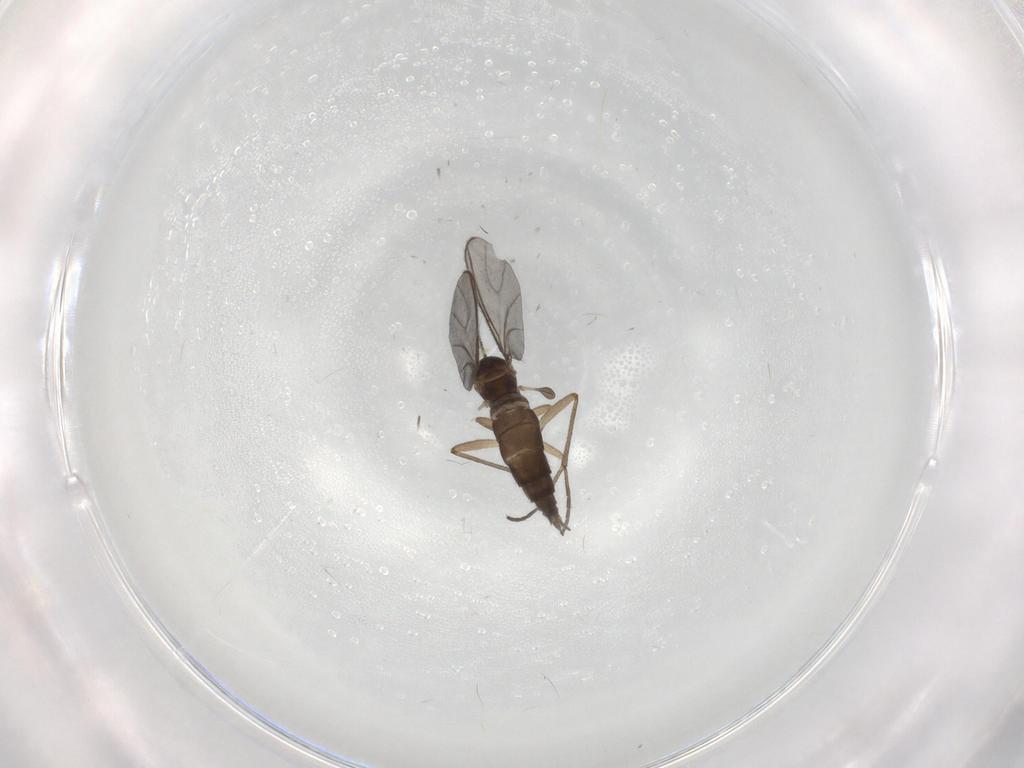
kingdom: Animalia
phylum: Arthropoda
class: Insecta
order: Diptera
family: Sciaridae
